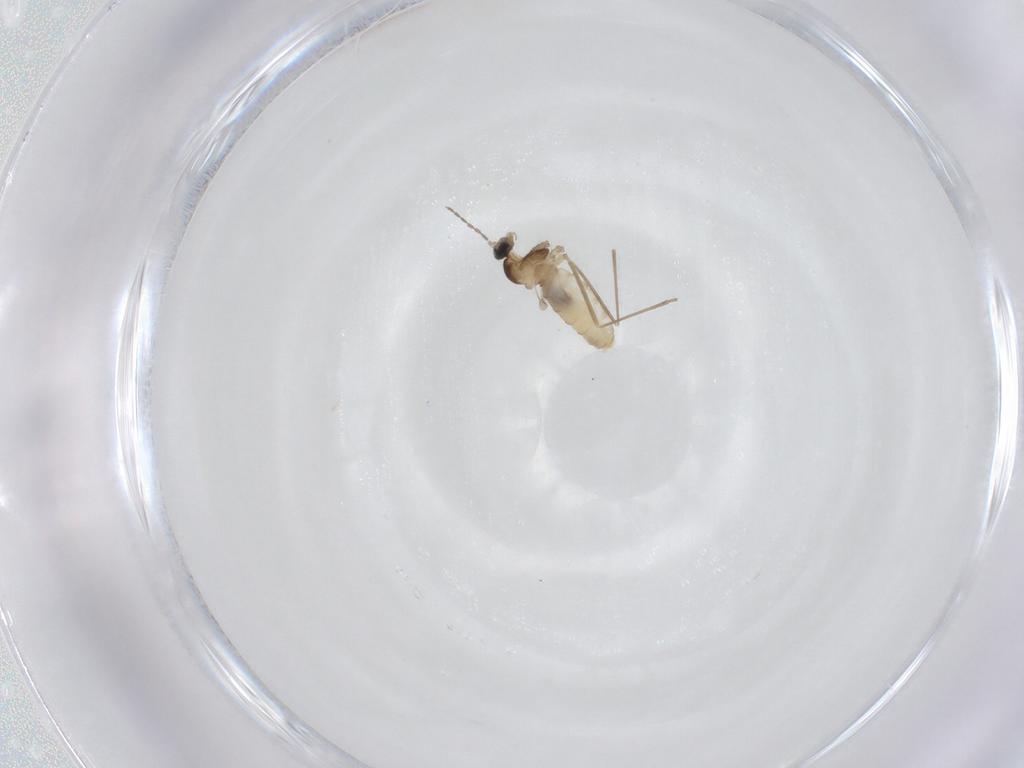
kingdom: Animalia
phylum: Arthropoda
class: Insecta
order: Diptera
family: Cecidomyiidae
